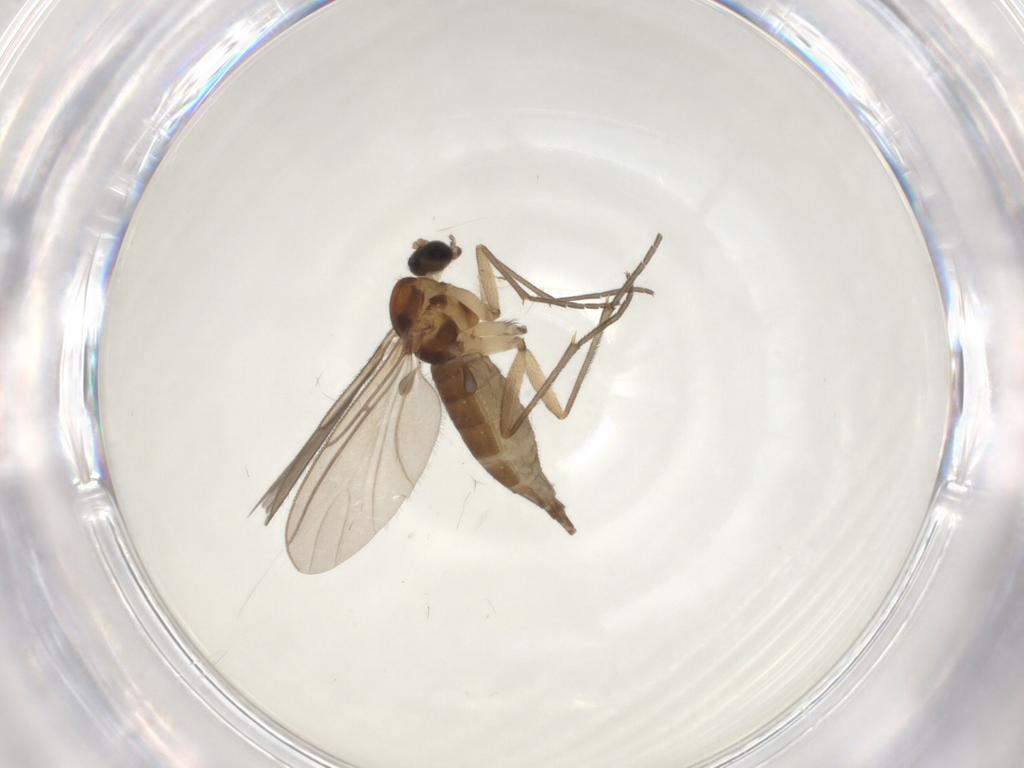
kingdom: Animalia
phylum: Arthropoda
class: Insecta
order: Diptera
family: Sciaridae
